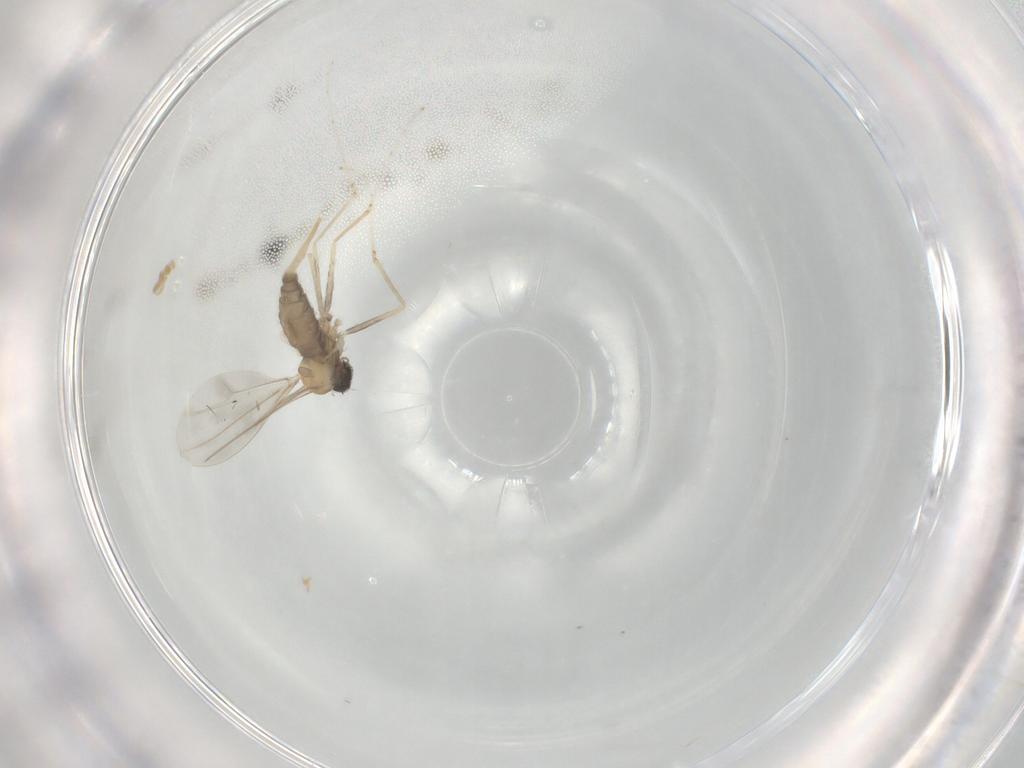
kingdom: Animalia
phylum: Arthropoda
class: Insecta
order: Diptera
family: Cecidomyiidae
